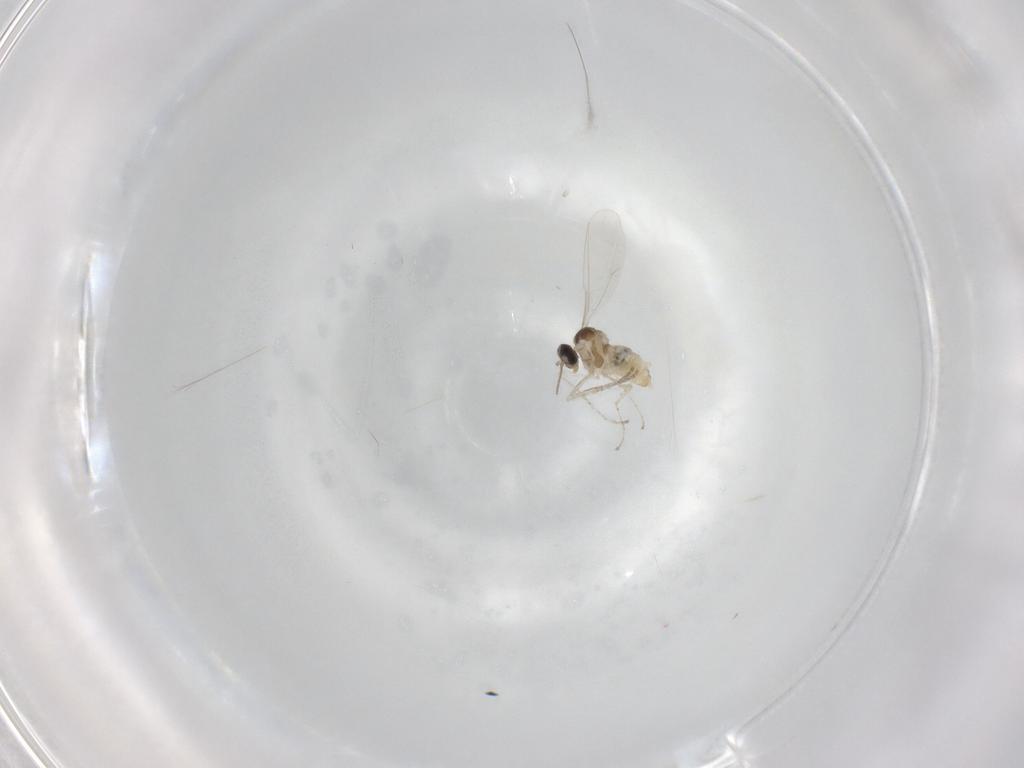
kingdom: Animalia
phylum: Arthropoda
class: Insecta
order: Diptera
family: Cecidomyiidae
